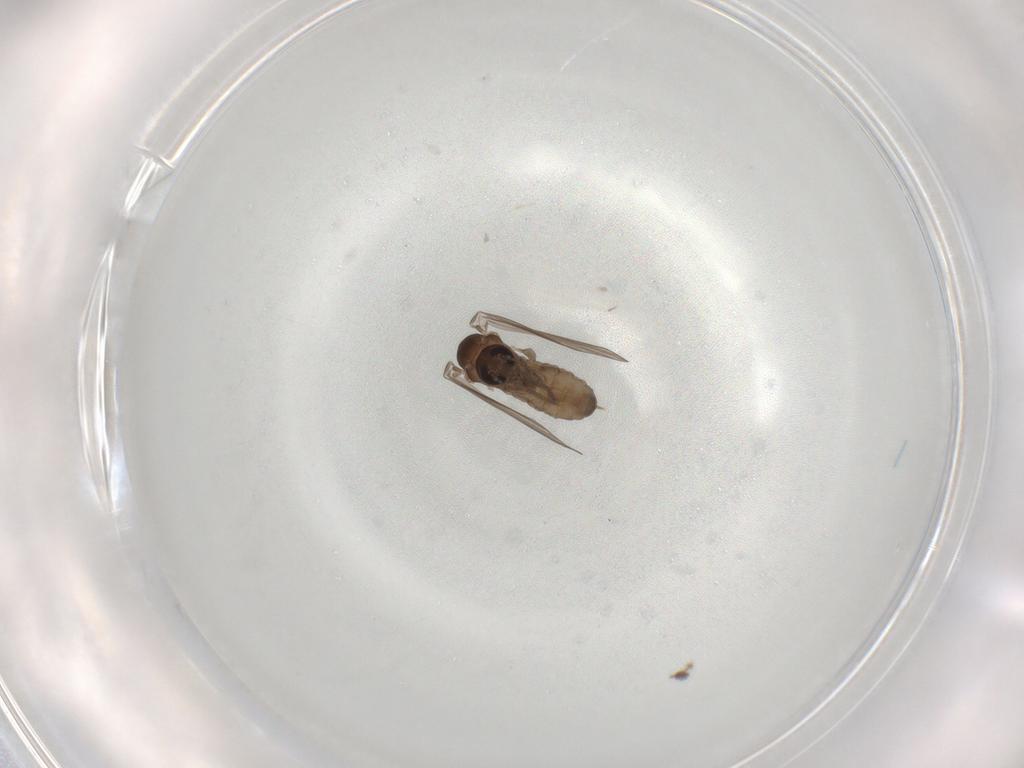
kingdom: Animalia
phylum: Arthropoda
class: Insecta
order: Diptera
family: Psychodidae
